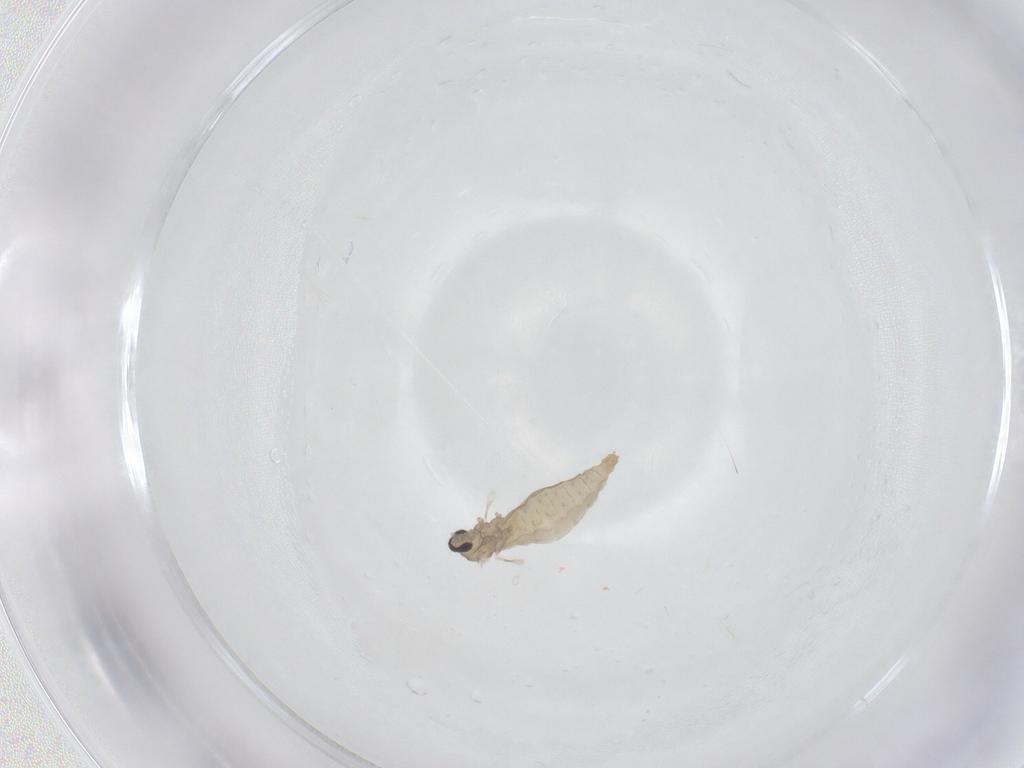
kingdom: Animalia
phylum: Arthropoda
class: Insecta
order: Diptera
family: Cecidomyiidae
